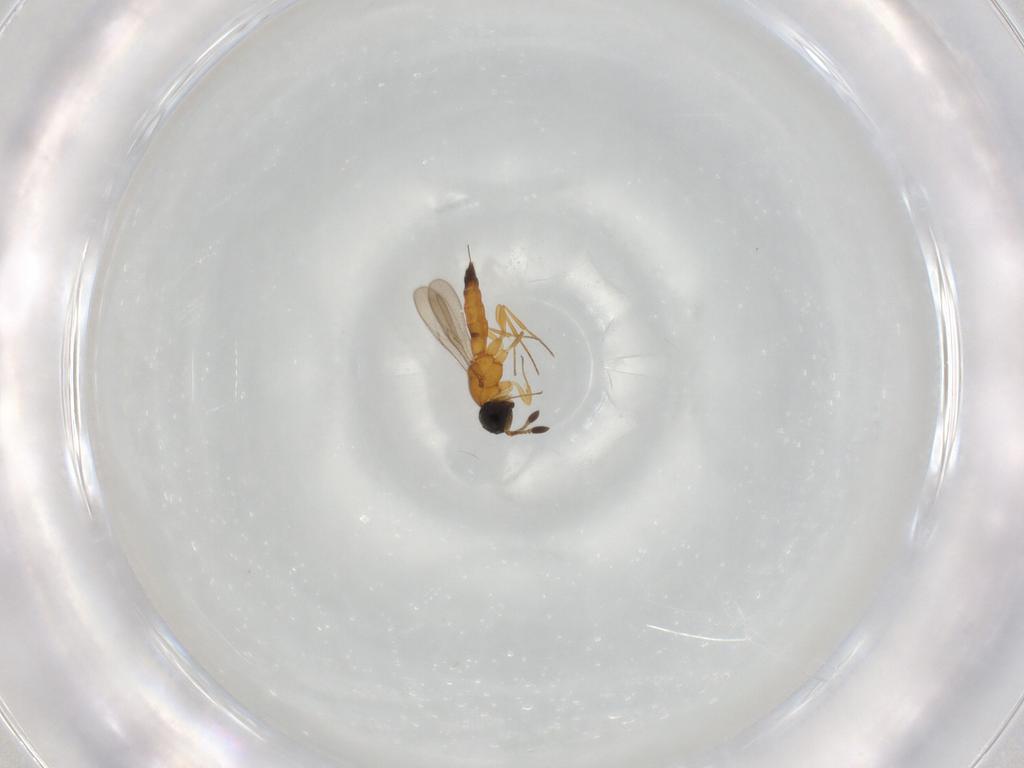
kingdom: Animalia
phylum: Arthropoda
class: Insecta
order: Hymenoptera
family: Scelionidae
